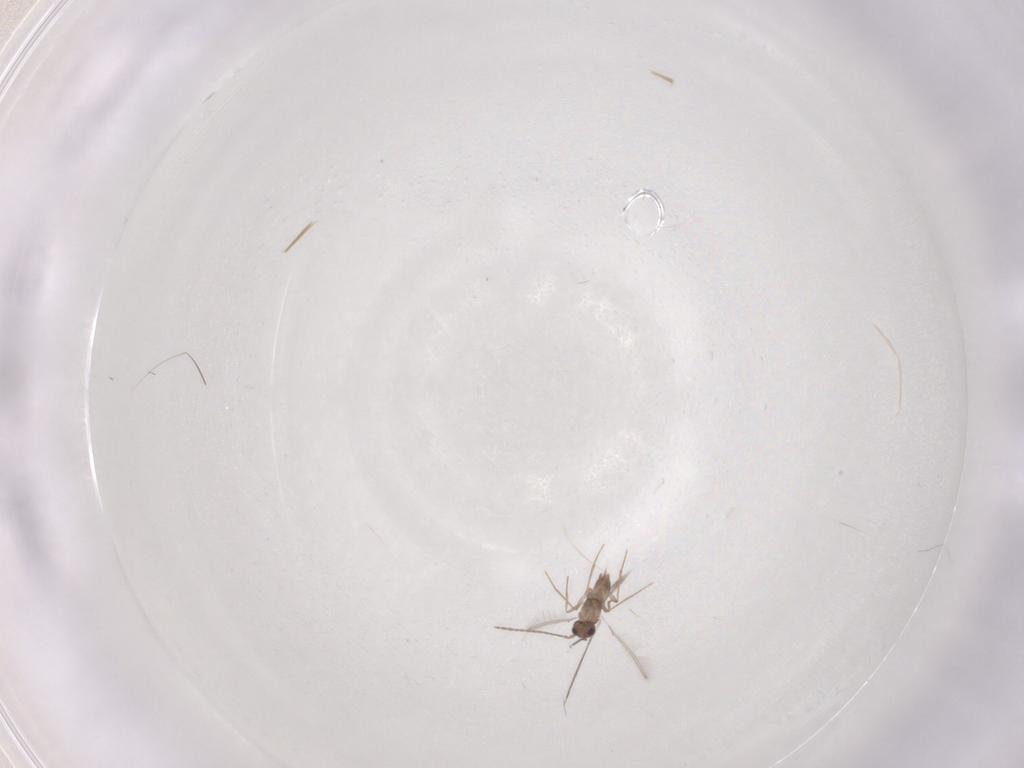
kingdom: Animalia
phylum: Arthropoda
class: Insecta
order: Hymenoptera
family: Mymaridae
